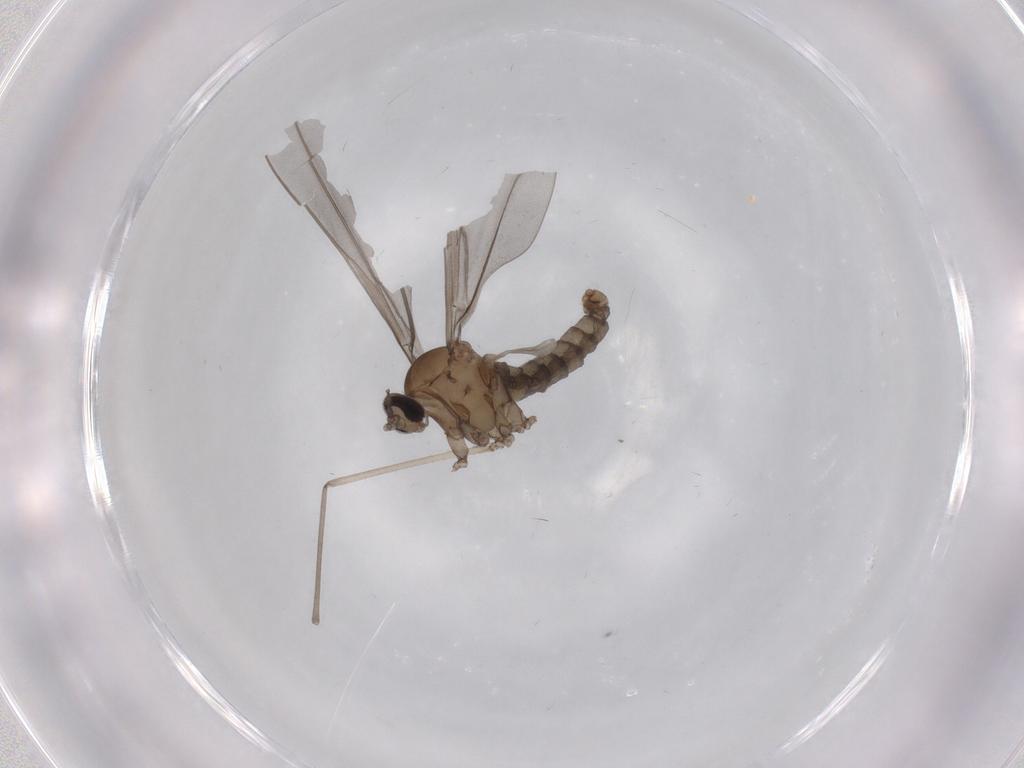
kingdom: Animalia
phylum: Arthropoda
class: Insecta
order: Diptera
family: Cecidomyiidae
